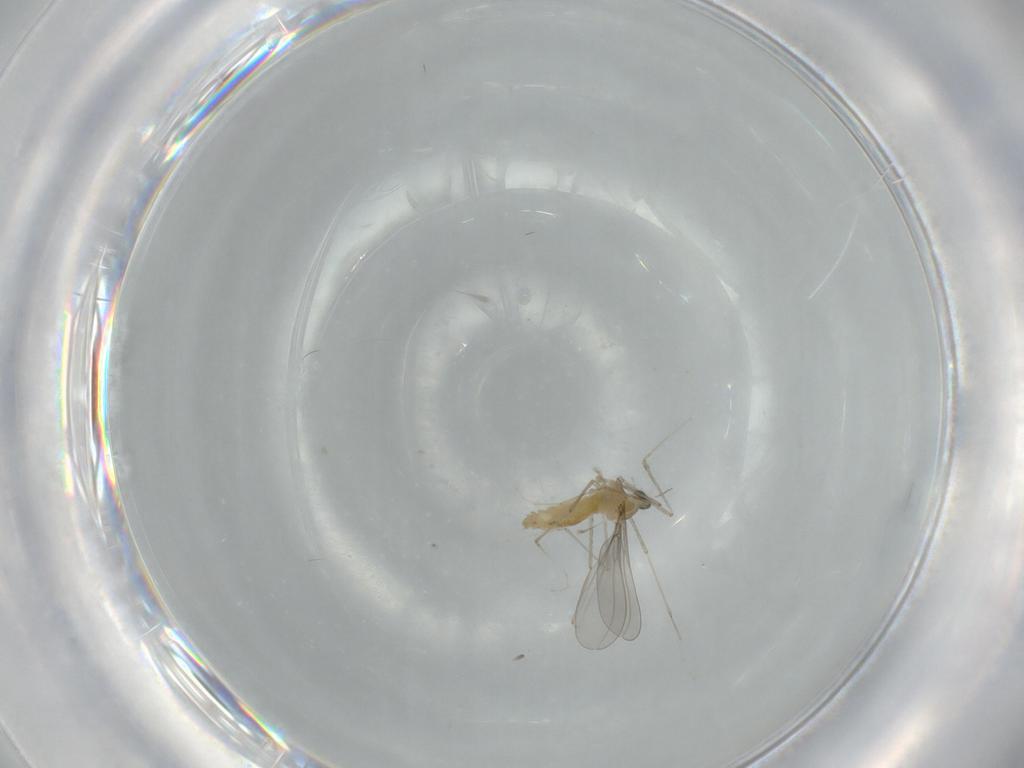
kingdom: Animalia
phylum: Arthropoda
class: Insecta
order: Diptera
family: Cecidomyiidae
